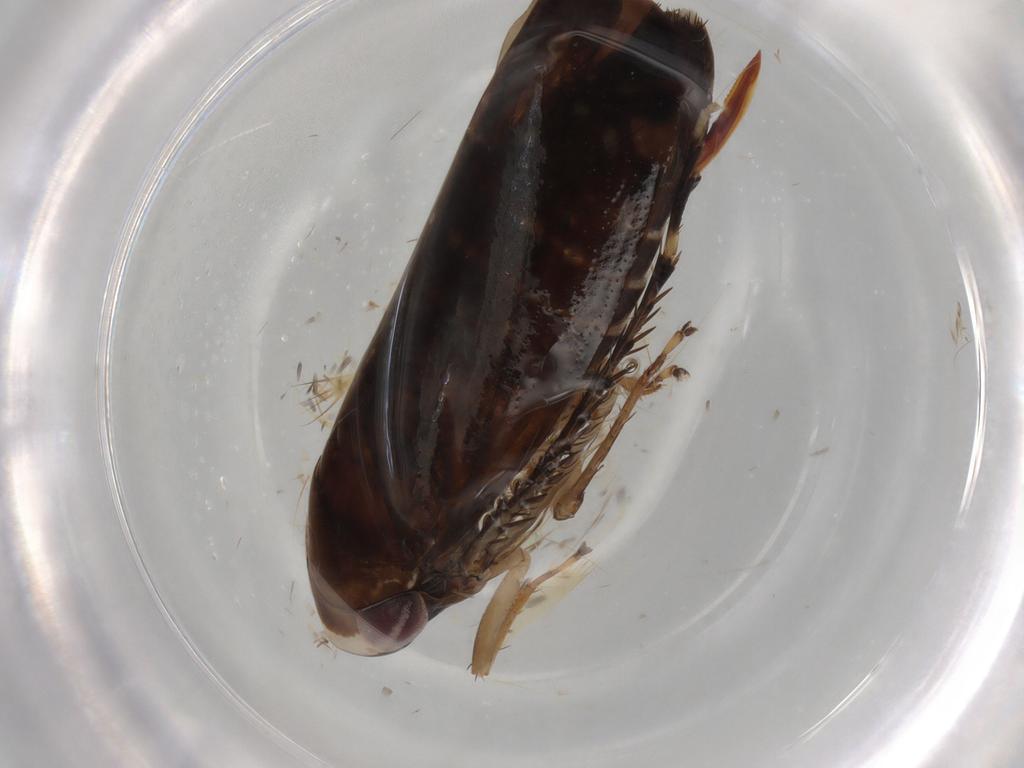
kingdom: Animalia
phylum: Arthropoda
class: Insecta
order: Hemiptera
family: Cicadellidae
